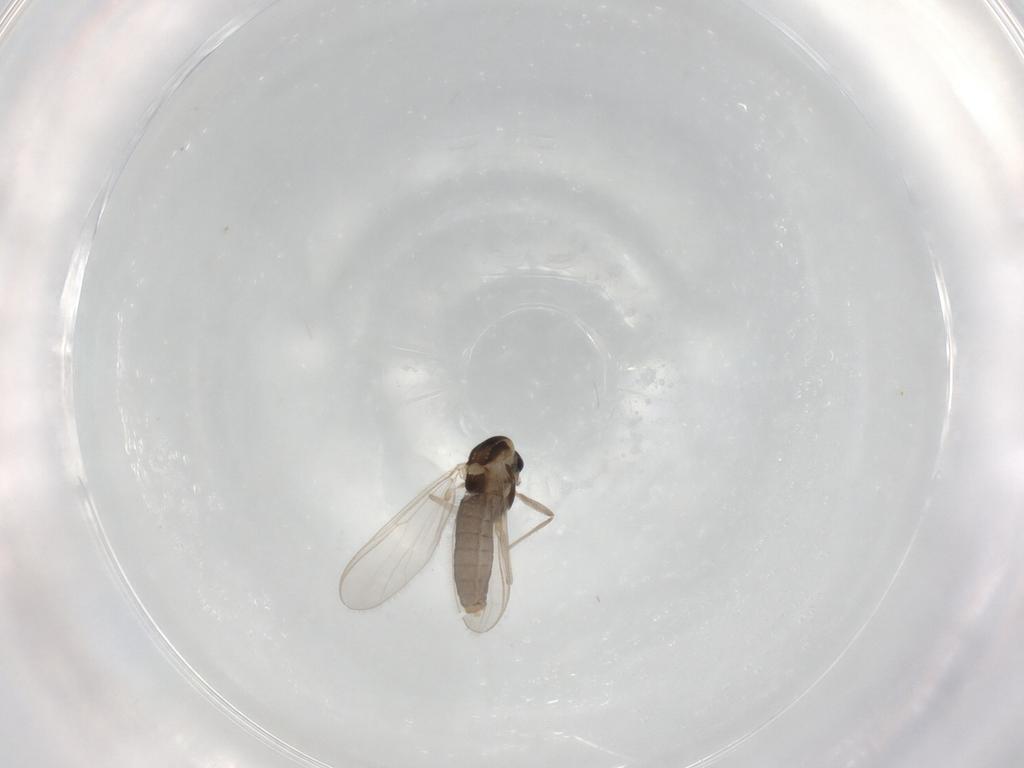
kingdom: Animalia
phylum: Arthropoda
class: Insecta
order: Diptera
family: Chironomidae
